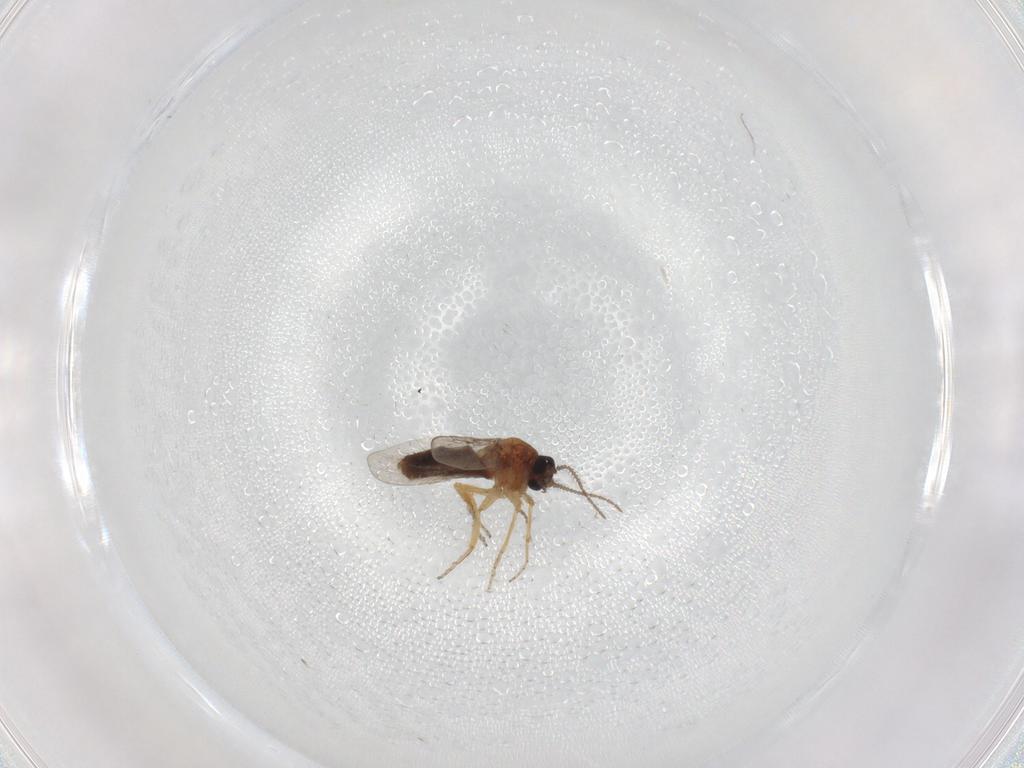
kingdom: Animalia
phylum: Arthropoda
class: Insecta
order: Diptera
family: Ceratopogonidae
